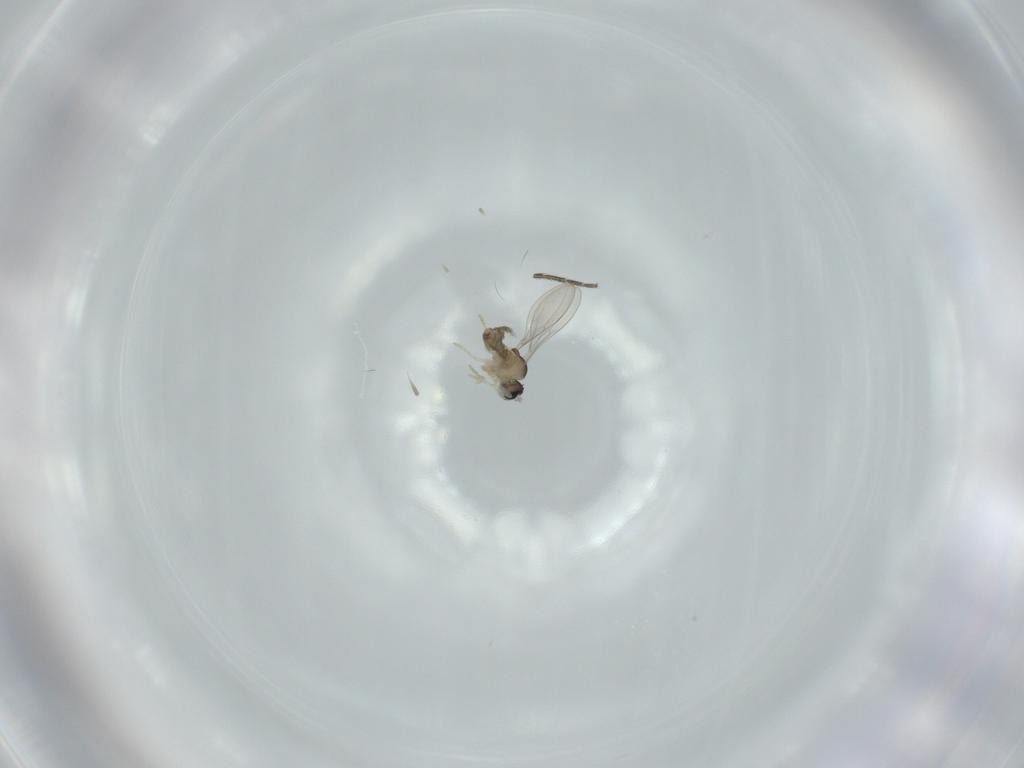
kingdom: Animalia
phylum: Arthropoda
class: Insecta
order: Diptera
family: Cecidomyiidae
